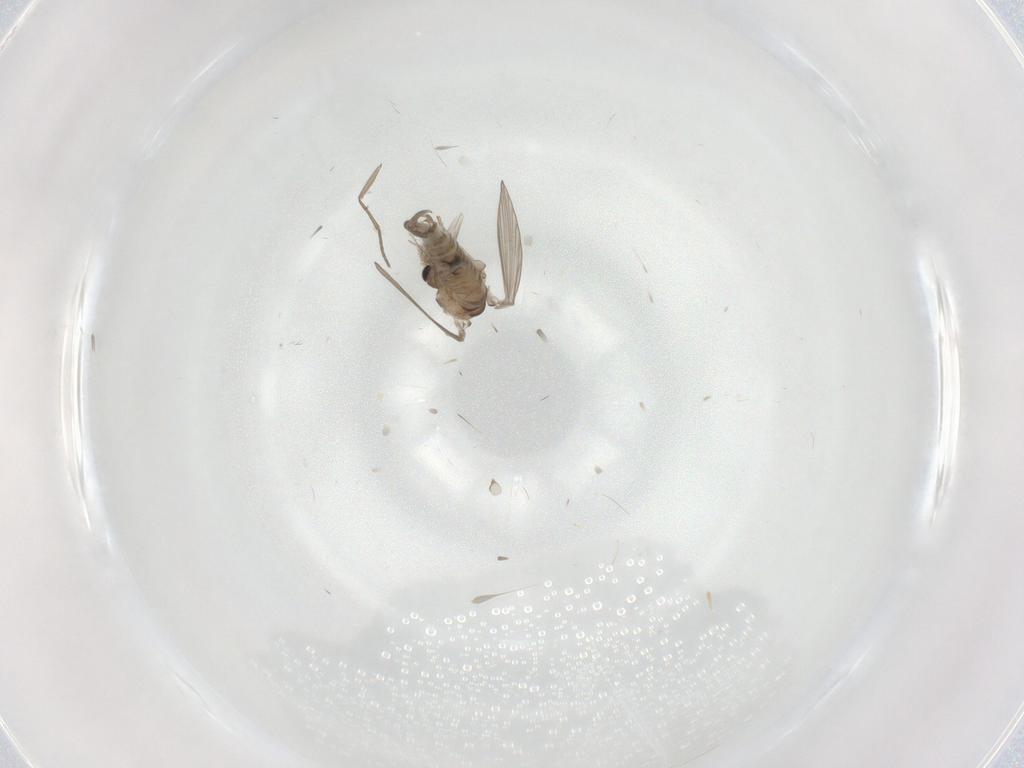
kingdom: Animalia
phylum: Arthropoda
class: Insecta
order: Diptera
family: Psychodidae
